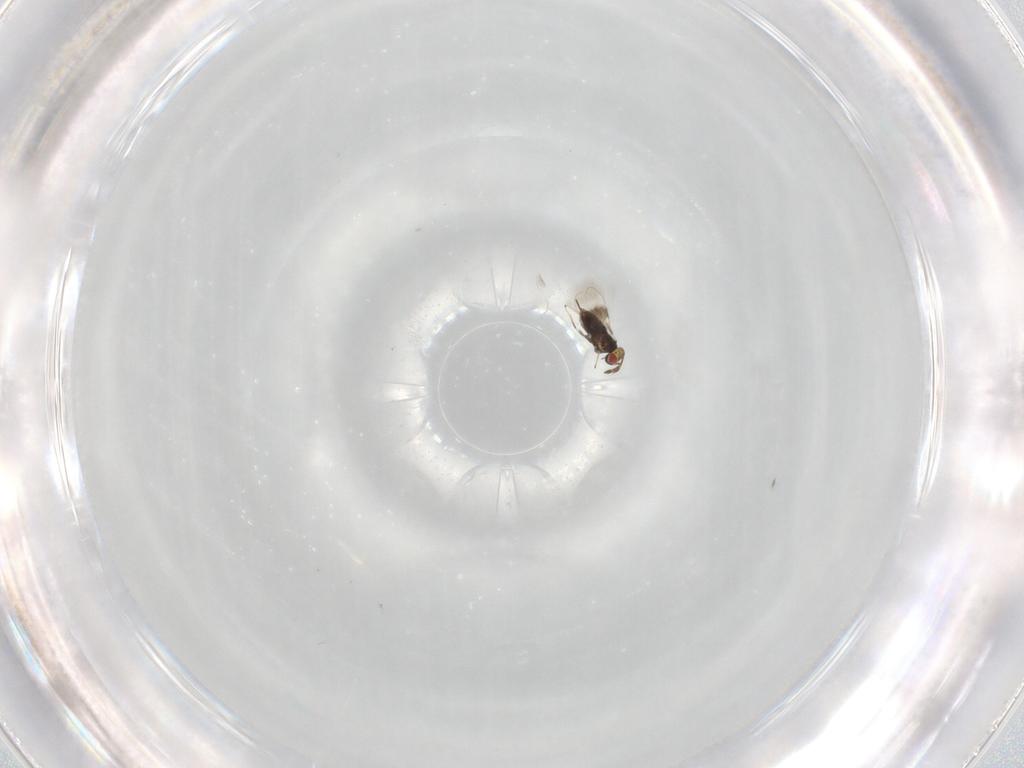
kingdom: Animalia
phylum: Arthropoda
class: Insecta
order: Hymenoptera
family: Azotidae
